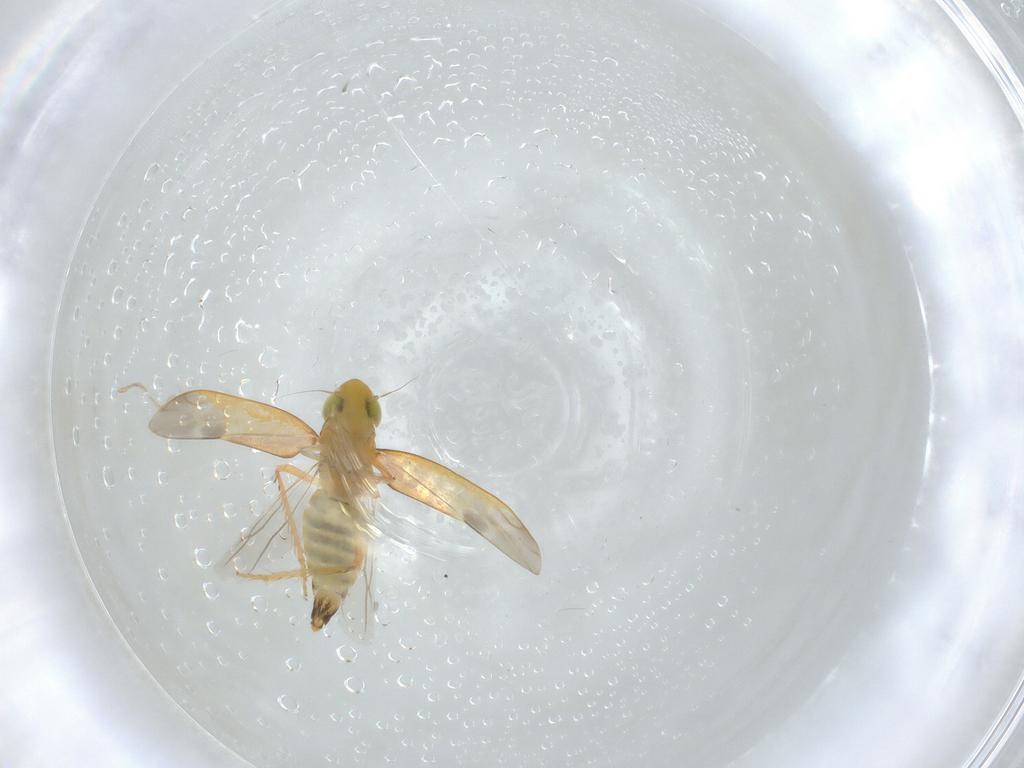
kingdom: Animalia
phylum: Arthropoda
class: Insecta
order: Hemiptera
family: Cicadellidae
